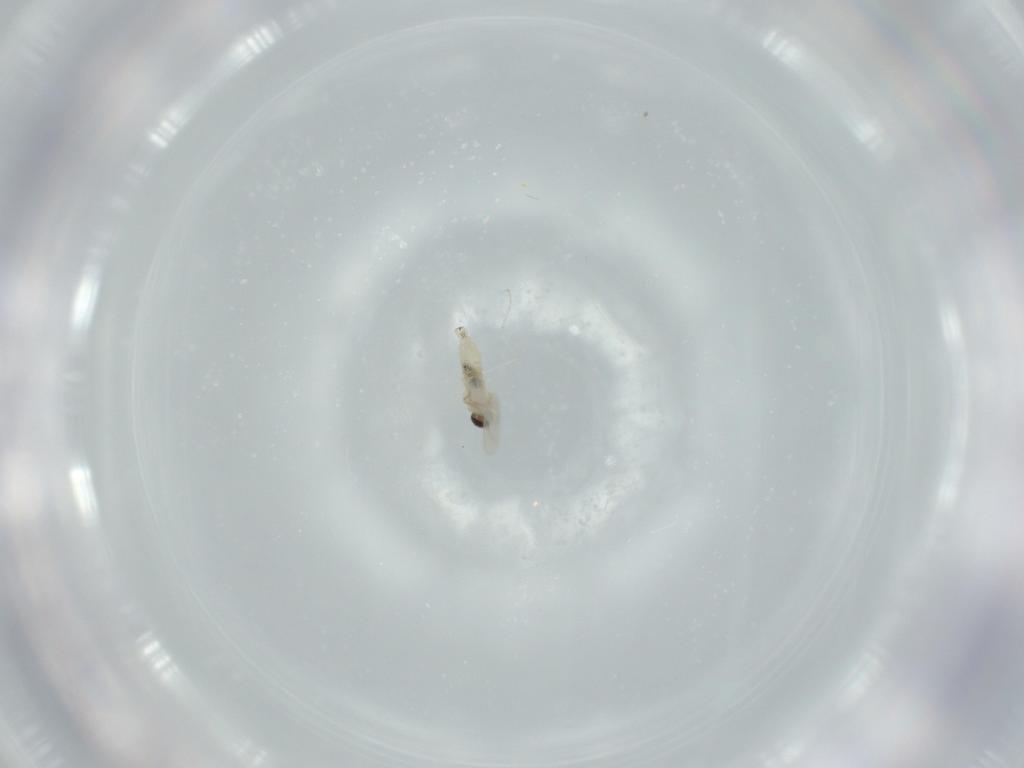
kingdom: Animalia
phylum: Arthropoda
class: Insecta
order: Diptera
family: Cecidomyiidae
